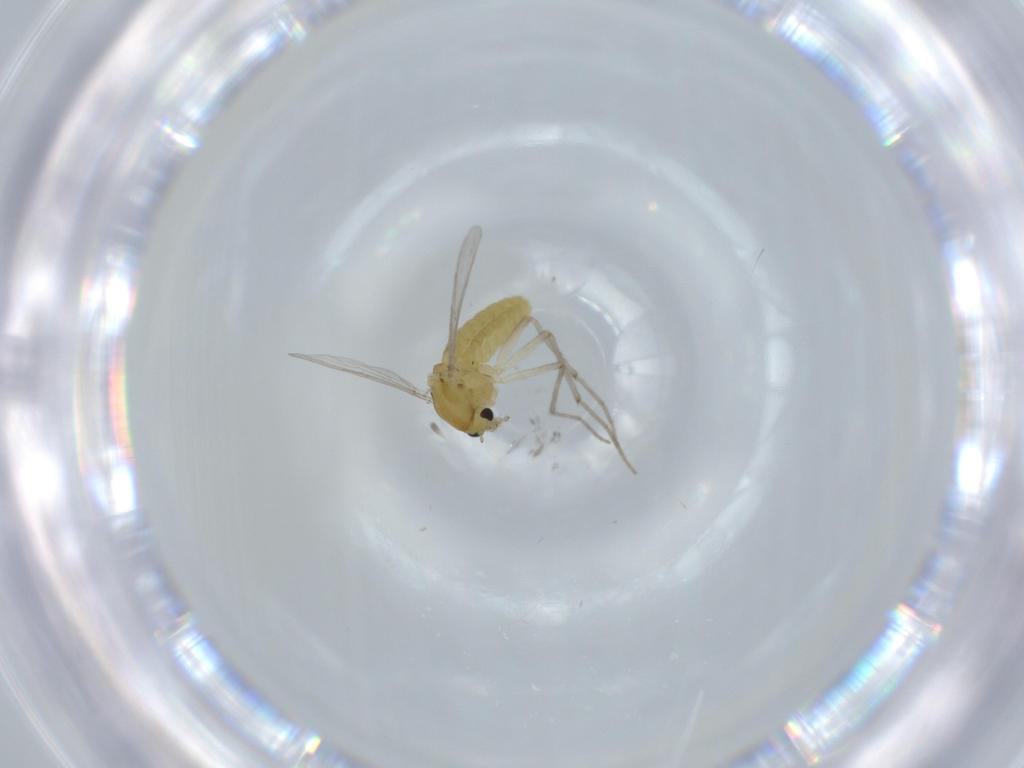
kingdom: Animalia
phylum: Arthropoda
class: Insecta
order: Diptera
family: Chironomidae
